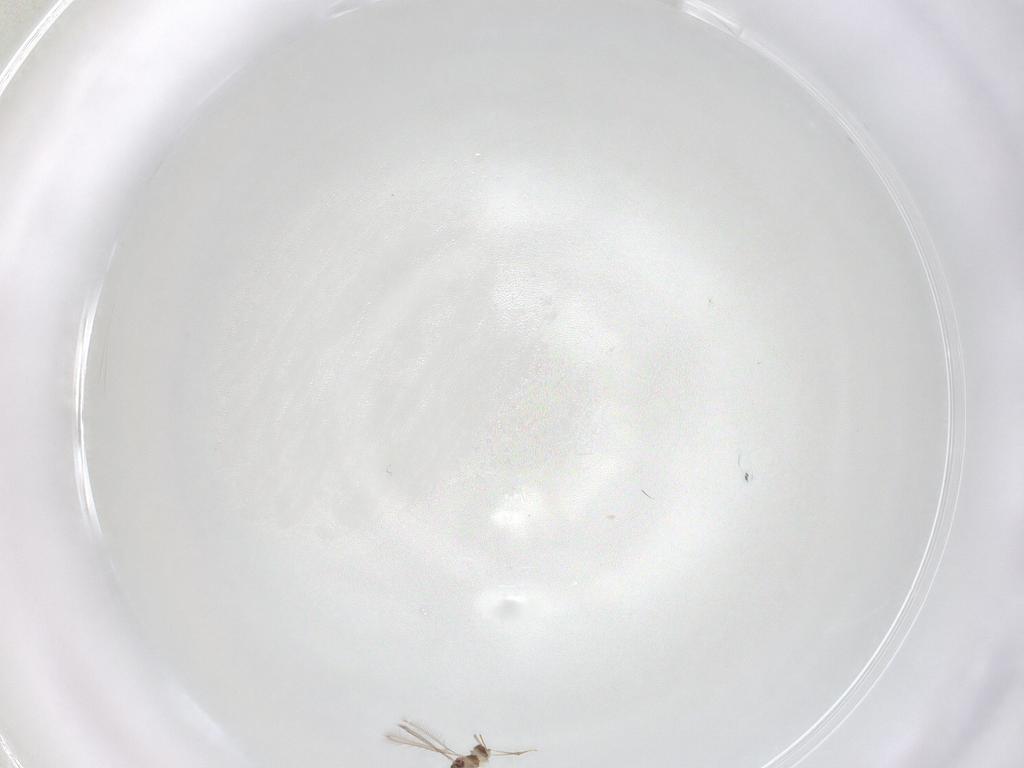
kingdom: Animalia
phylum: Arthropoda
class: Insecta
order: Hymenoptera
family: Mymaridae
